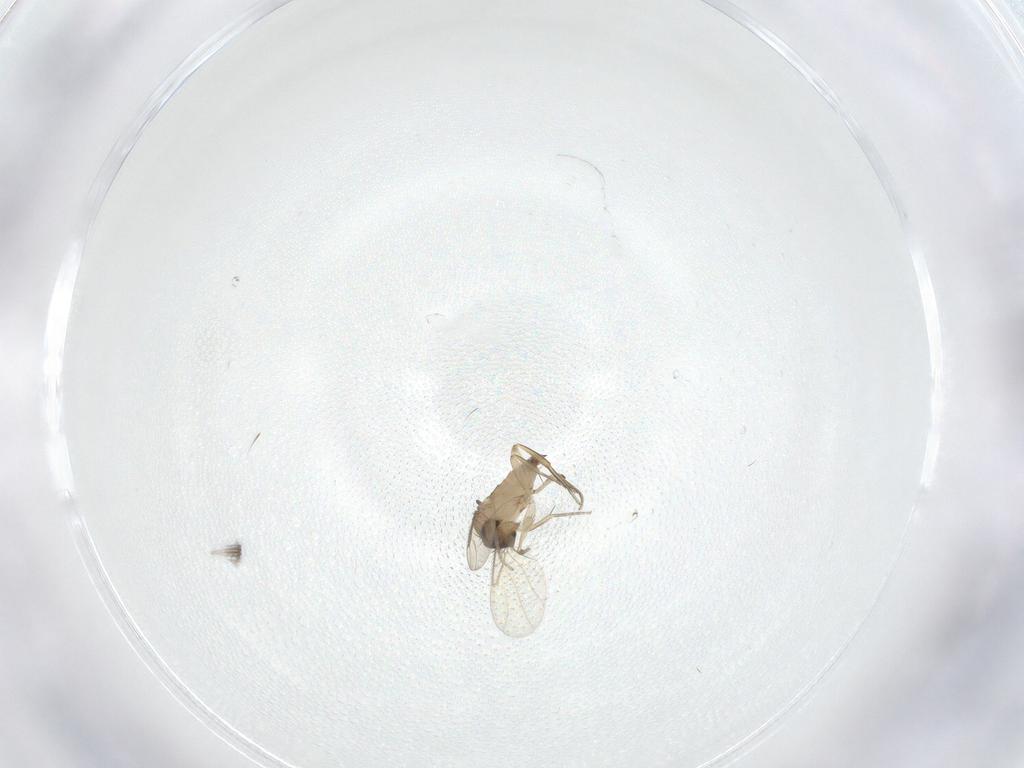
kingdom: Animalia
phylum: Arthropoda
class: Insecta
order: Diptera
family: Phoridae
